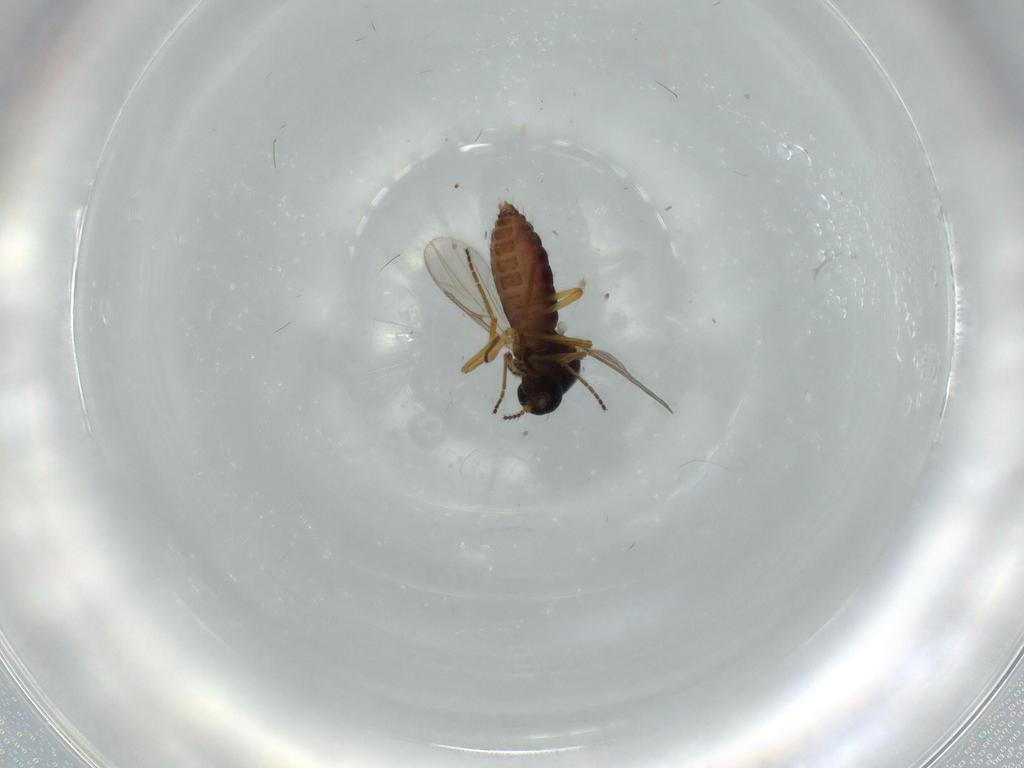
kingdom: Animalia
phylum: Arthropoda
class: Insecta
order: Diptera
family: Ceratopogonidae
